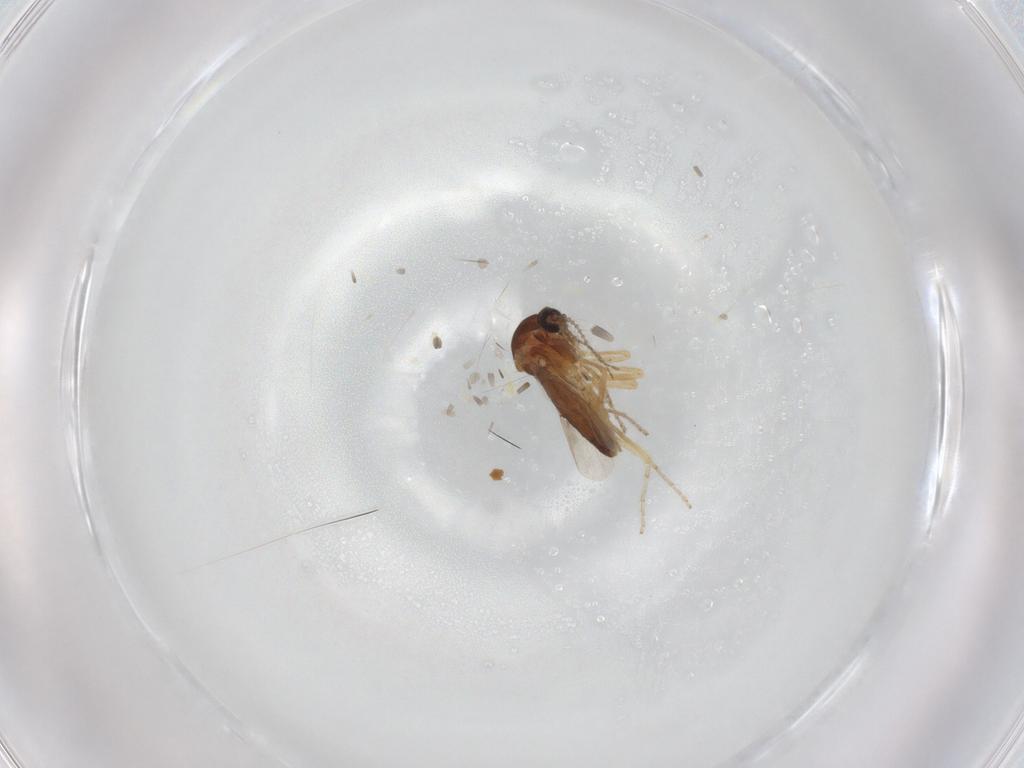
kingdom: Animalia
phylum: Arthropoda
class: Insecta
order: Diptera
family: Ceratopogonidae
